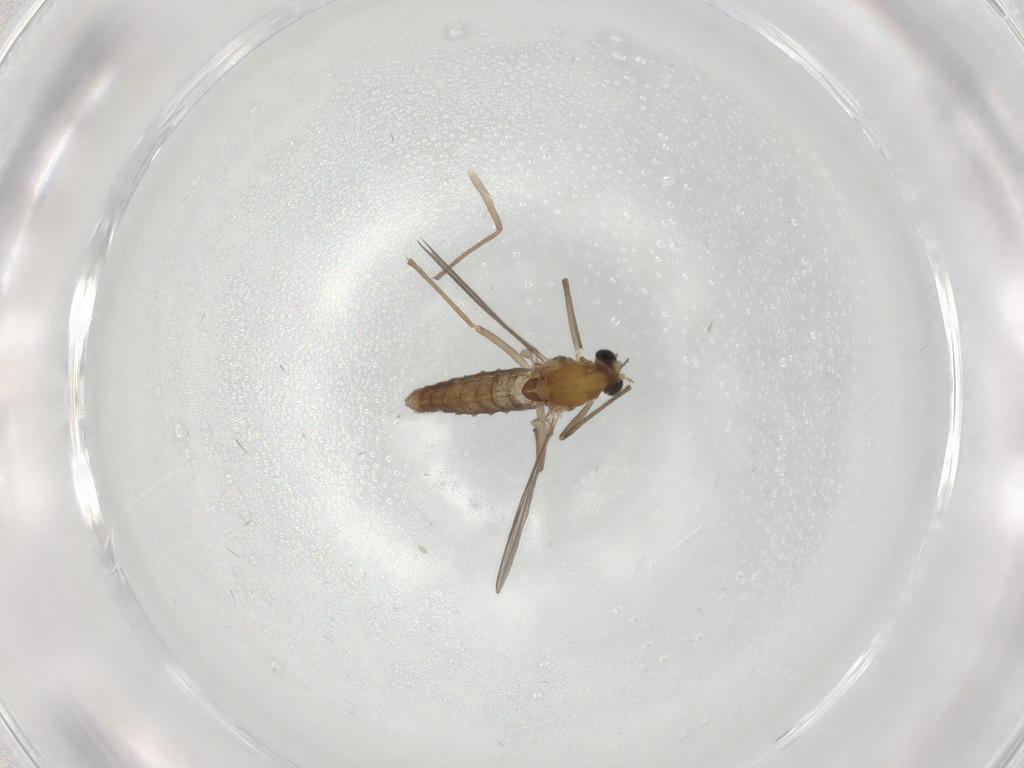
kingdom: Animalia
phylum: Arthropoda
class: Insecta
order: Diptera
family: Chironomidae
